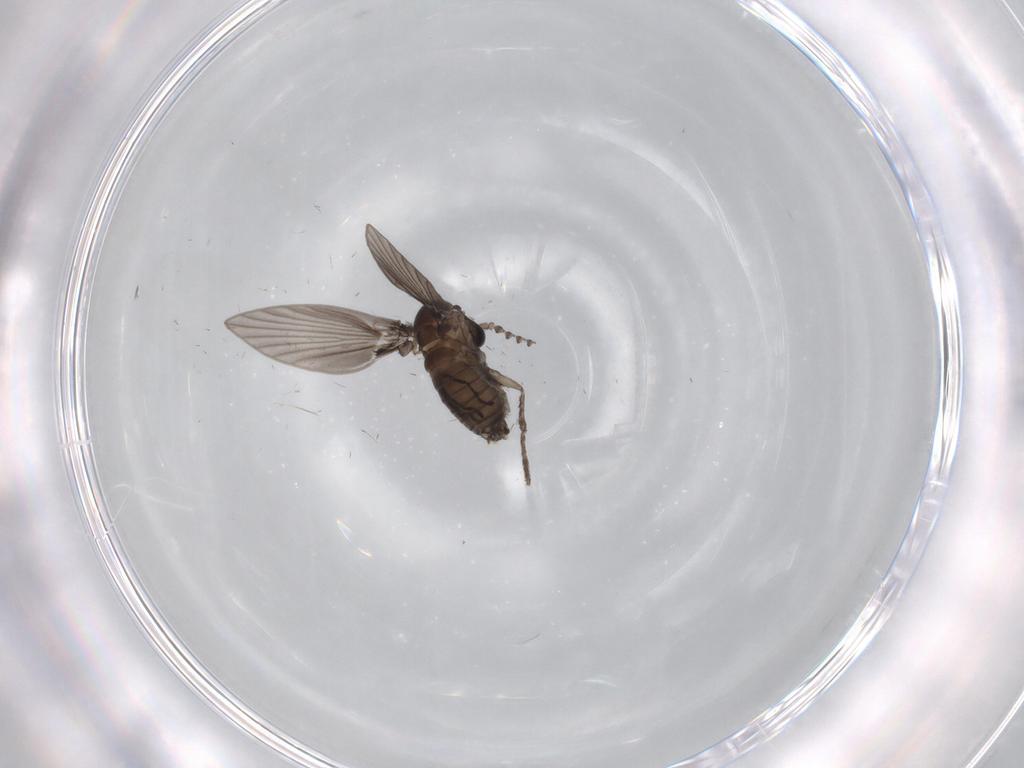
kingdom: Animalia
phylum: Arthropoda
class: Insecta
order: Diptera
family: Psychodidae
